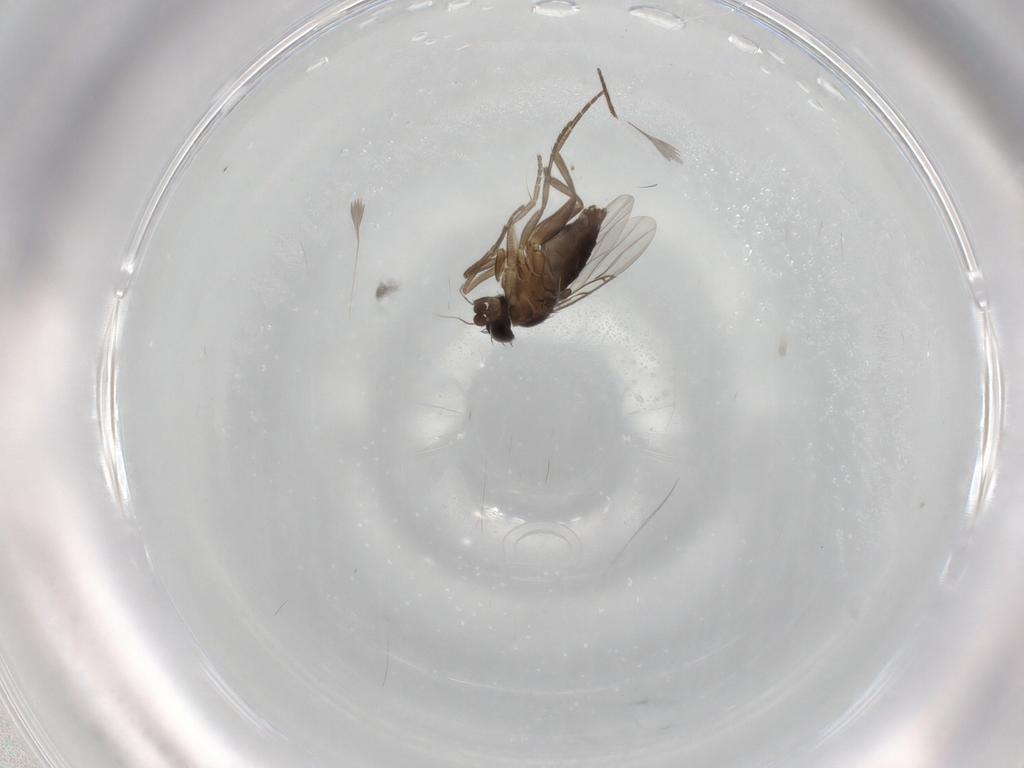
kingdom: Animalia
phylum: Arthropoda
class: Insecta
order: Diptera
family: Phoridae
